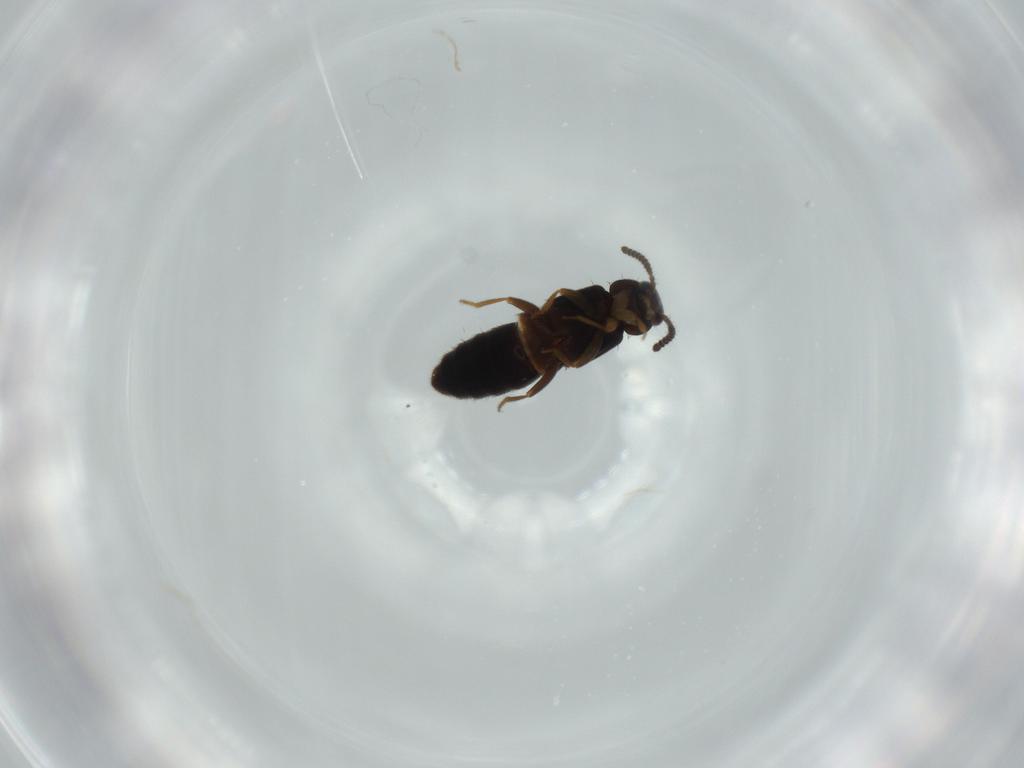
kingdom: Animalia
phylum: Arthropoda
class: Insecta
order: Coleoptera
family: Staphylinidae
